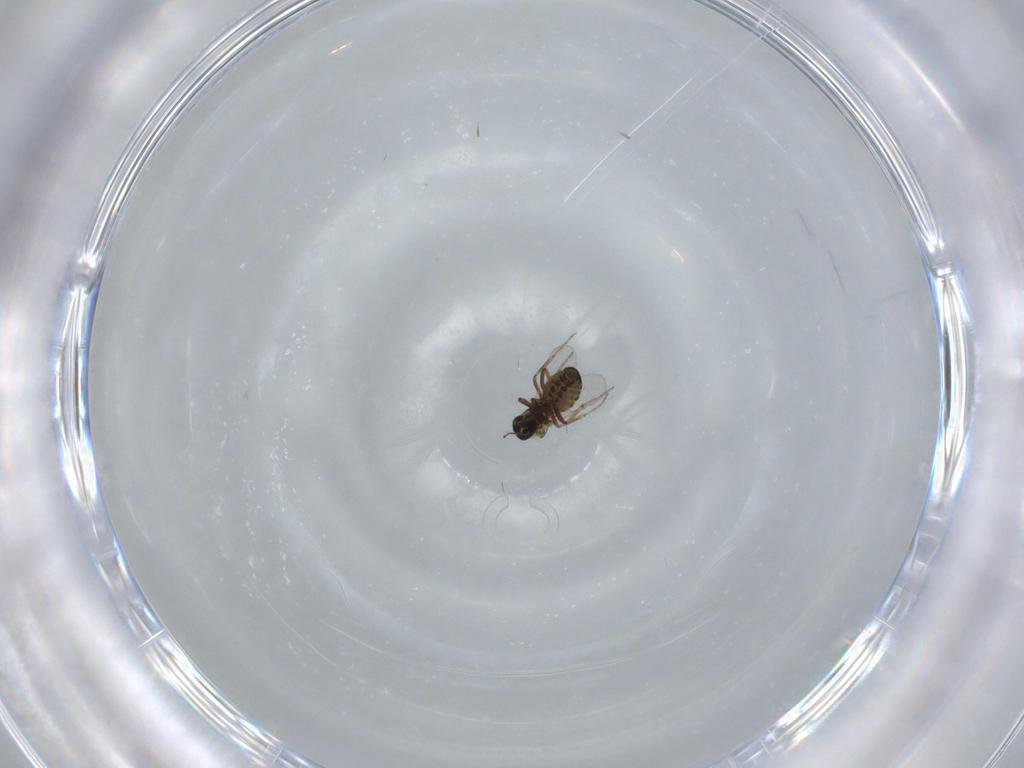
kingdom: Animalia
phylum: Arthropoda
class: Insecta
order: Diptera
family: Ceratopogonidae
